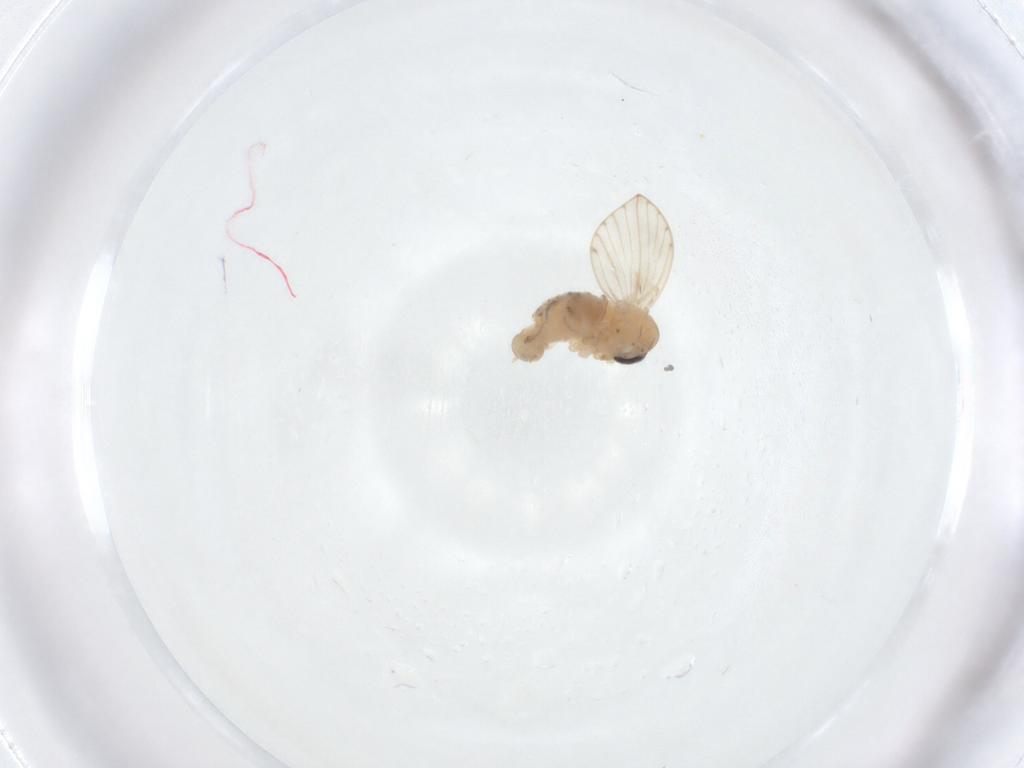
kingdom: Animalia
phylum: Arthropoda
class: Insecta
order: Diptera
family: Psychodidae
